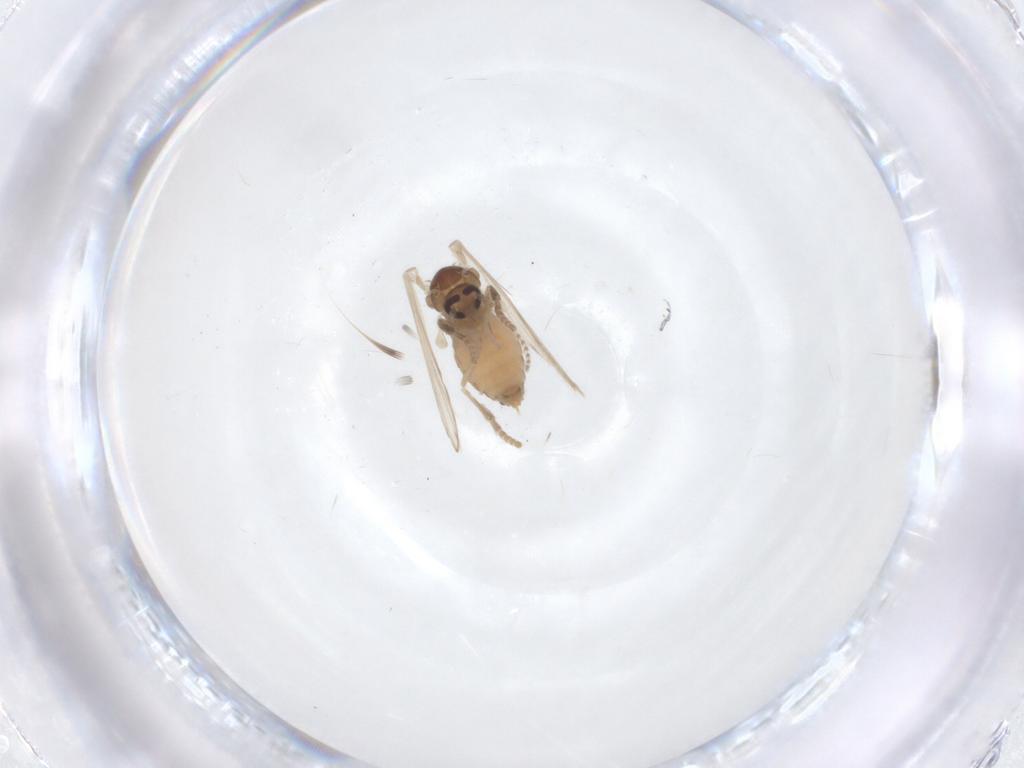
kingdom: Animalia
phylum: Arthropoda
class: Insecta
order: Diptera
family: Psychodidae
